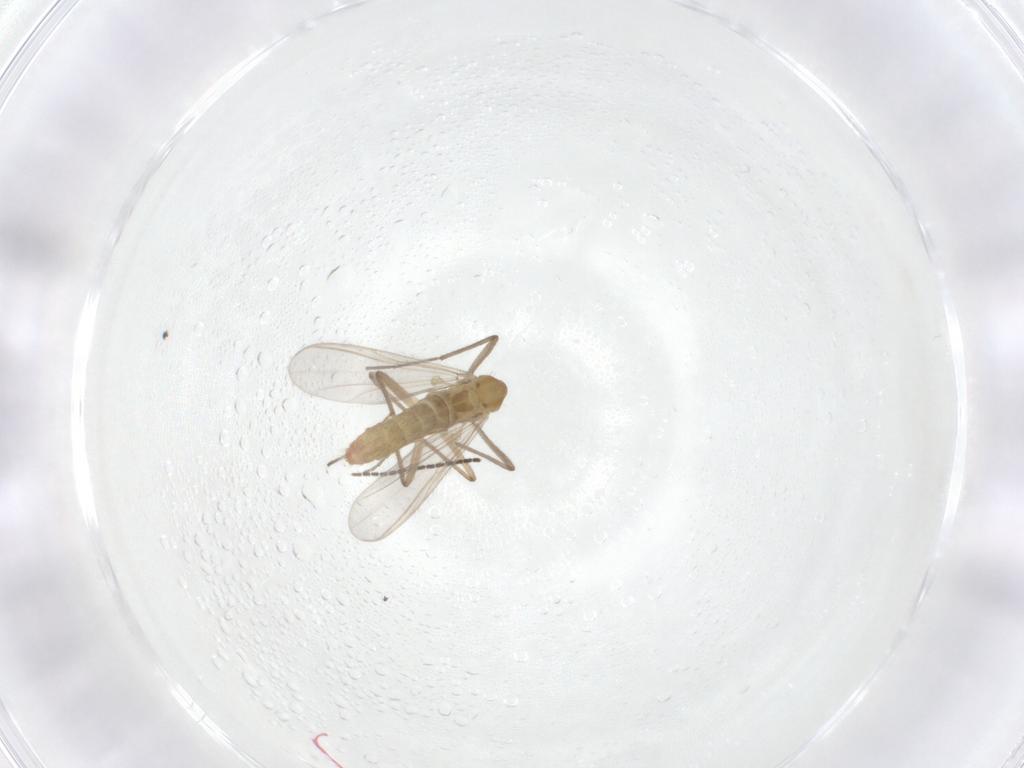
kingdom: Animalia
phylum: Arthropoda
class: Insecta
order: Diptera
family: Chironomidae
